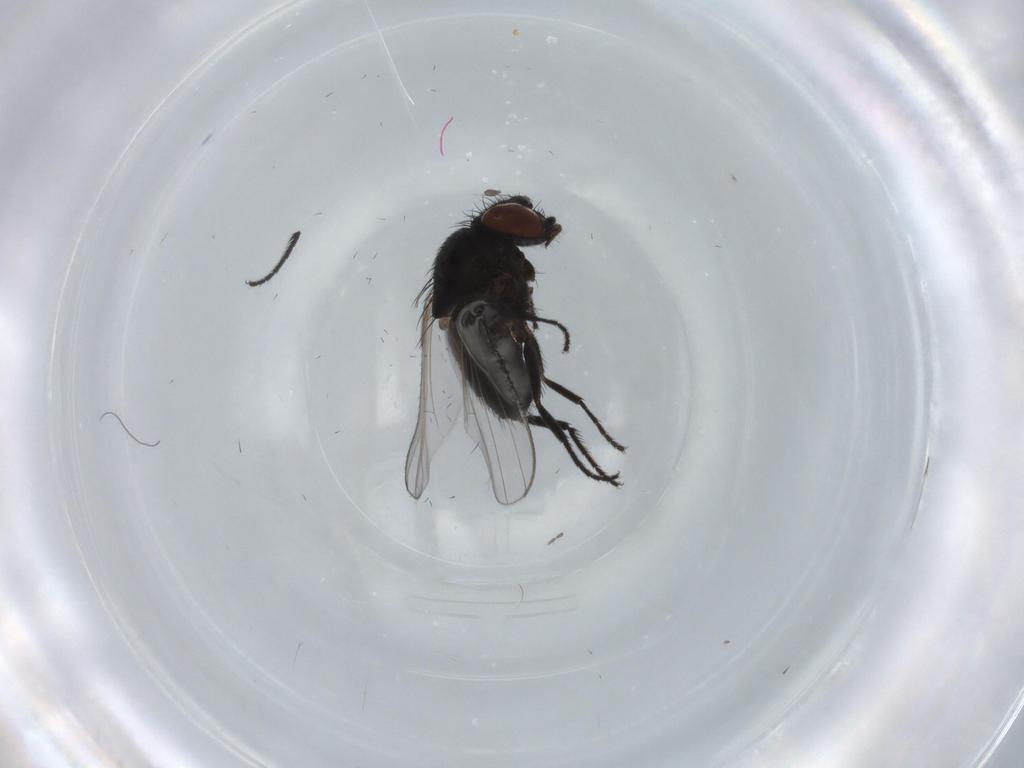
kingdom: Animalia
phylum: Arthropoda
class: Insecta
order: Diptera
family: Milichiidae
